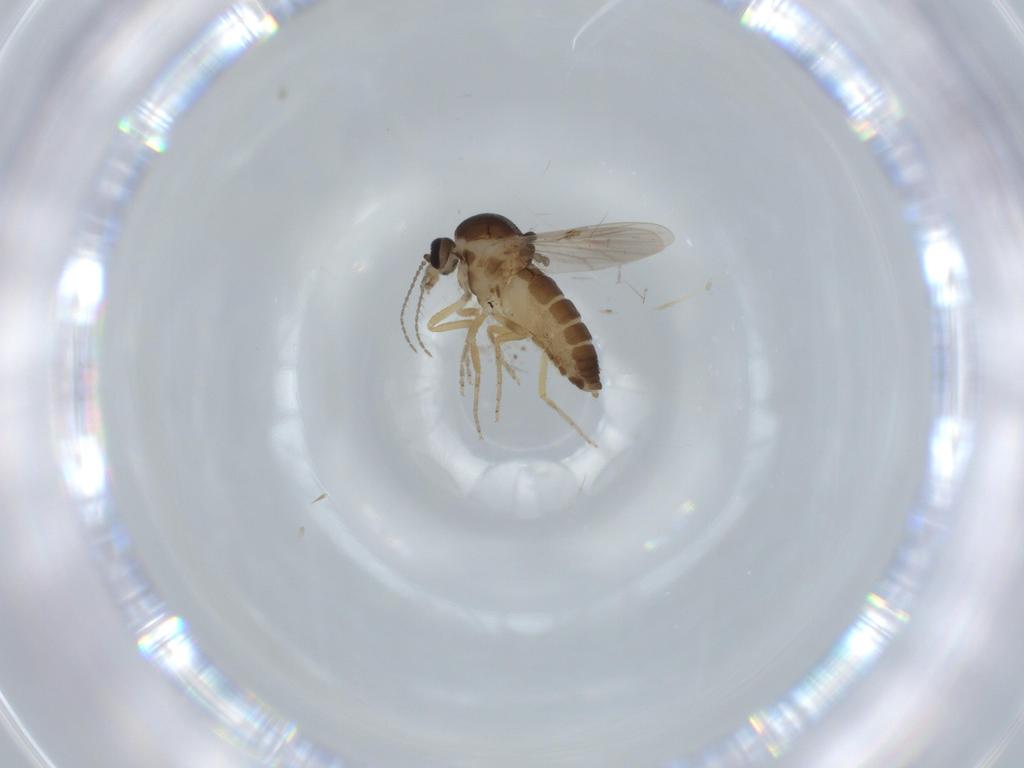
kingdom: Animalia
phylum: Arthropoda
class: Insecta
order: Diptera
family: Ceratopogonidae
